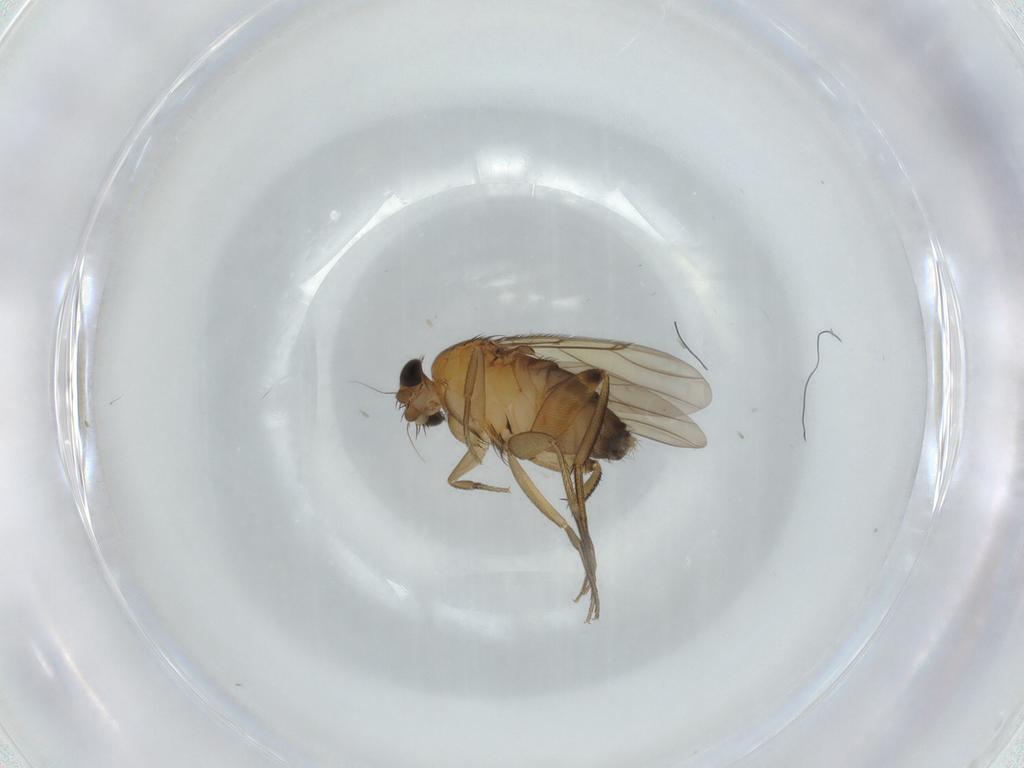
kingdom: Animalia
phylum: Arthropoda
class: Insecta
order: Diptera
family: Phoridae
